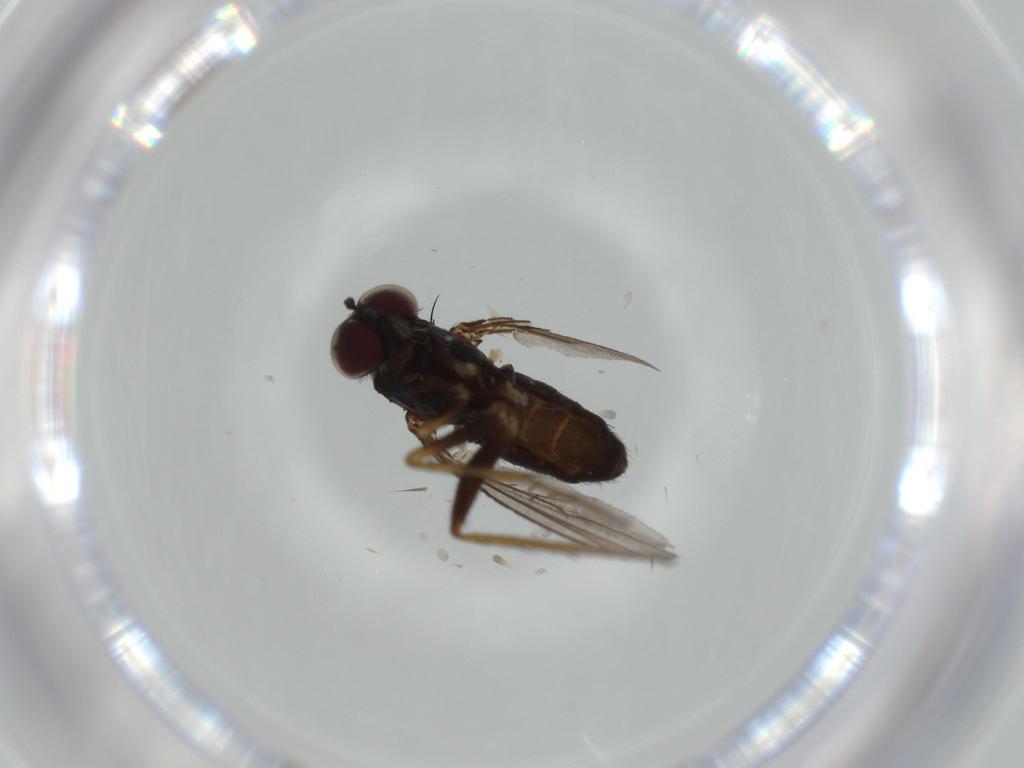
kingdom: Animalia
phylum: Arthropoda
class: Insecta
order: Diptera
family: Dolichopodidae
